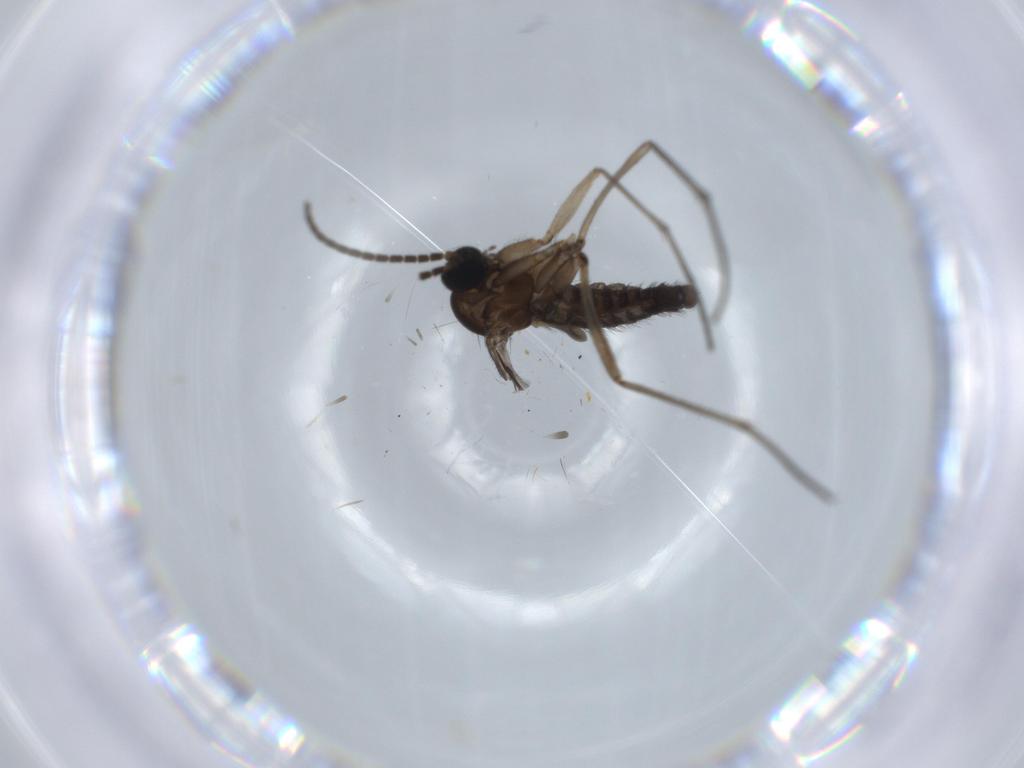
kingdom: Animalia
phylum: Arthropoda
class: Insecta
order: Diptera
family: Sciaridae
